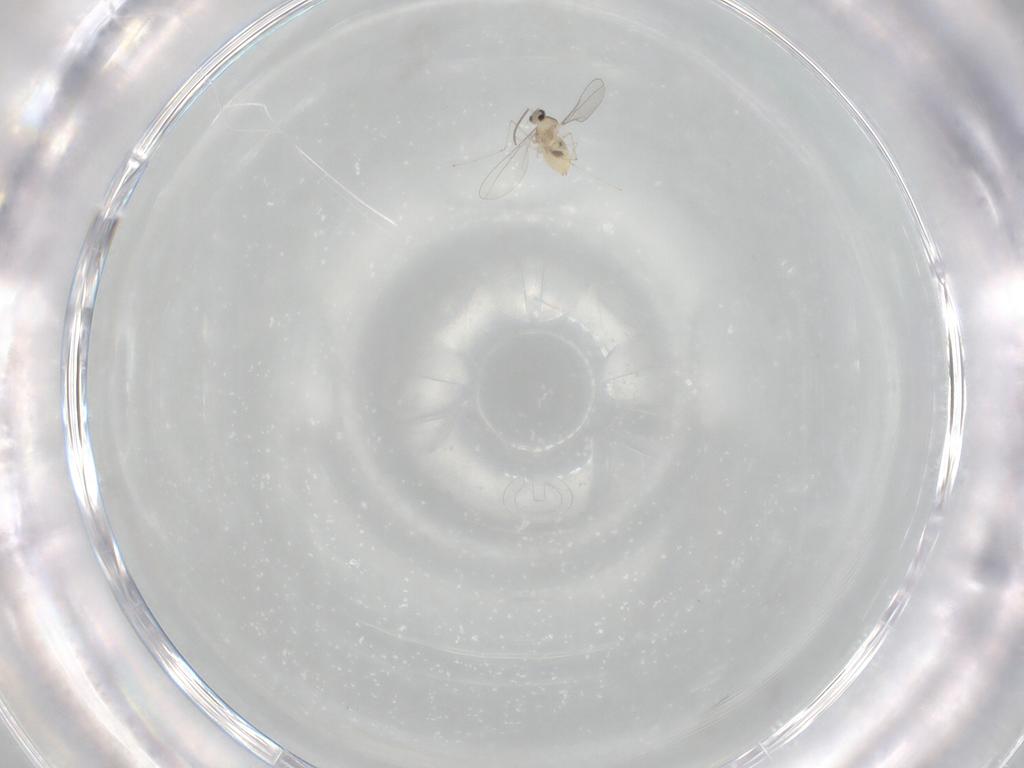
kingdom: Animalia
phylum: Arthropoda
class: Insecta
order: Diptera
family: Cecidomyiidae
